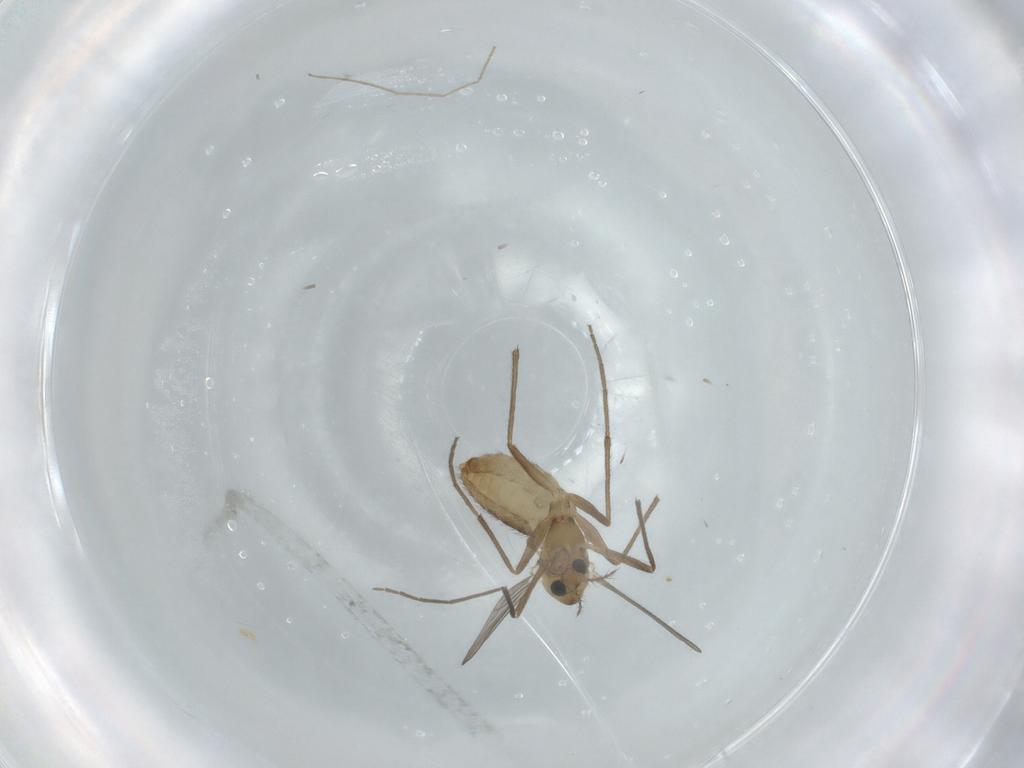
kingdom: Animalia
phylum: Arthropoda
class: Insecta
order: Diptera
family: Chironomidae
